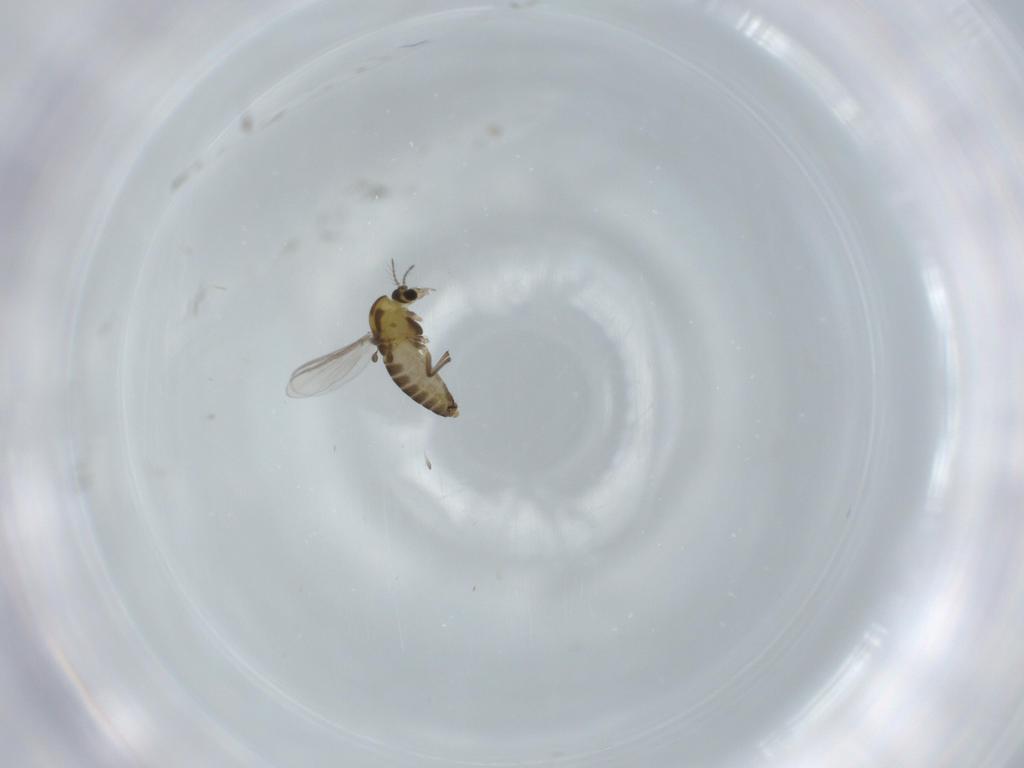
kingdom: Animalia
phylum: Arthropoda
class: Insecta
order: Diptera
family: Chironomidae
